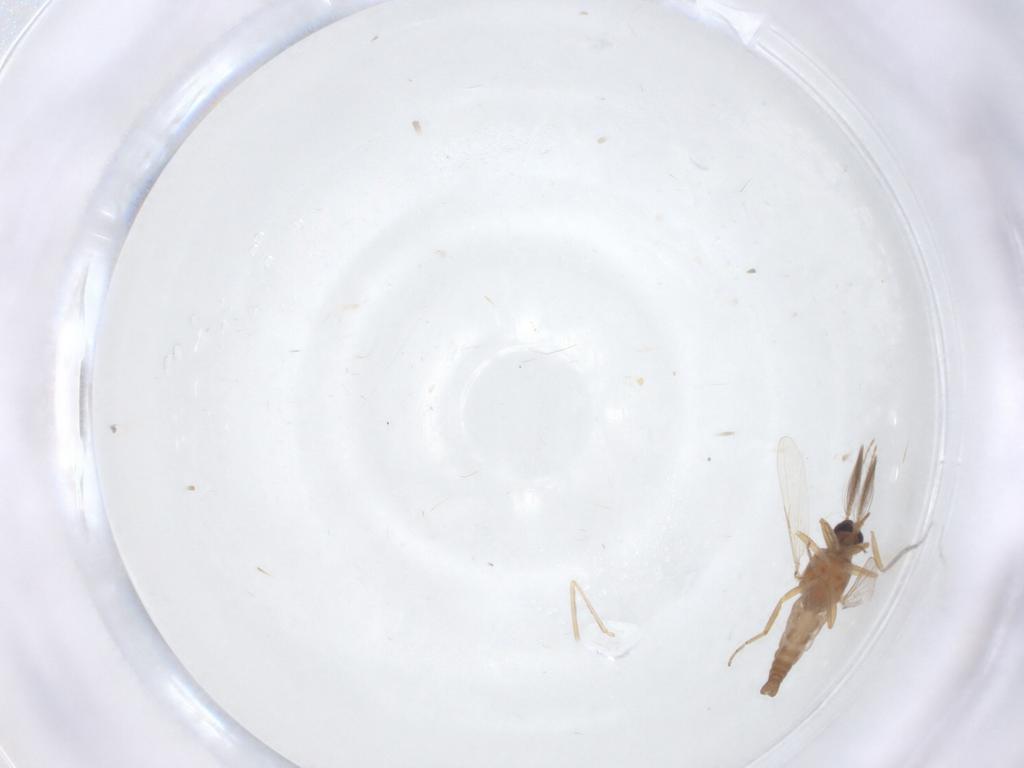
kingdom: Animalia
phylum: Arthropoda
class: Insecta
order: Diptera
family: Ceratopogonidae
